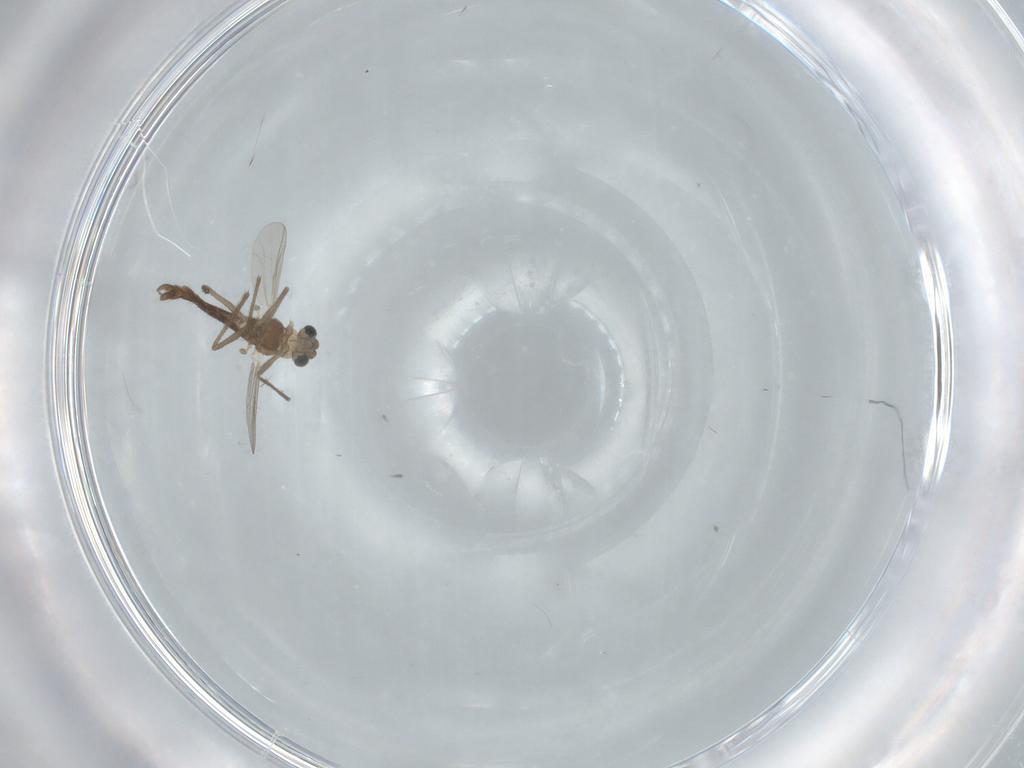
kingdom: Animalia
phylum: Arthropoda
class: Insecta
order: Diptera
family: Chironomidae
